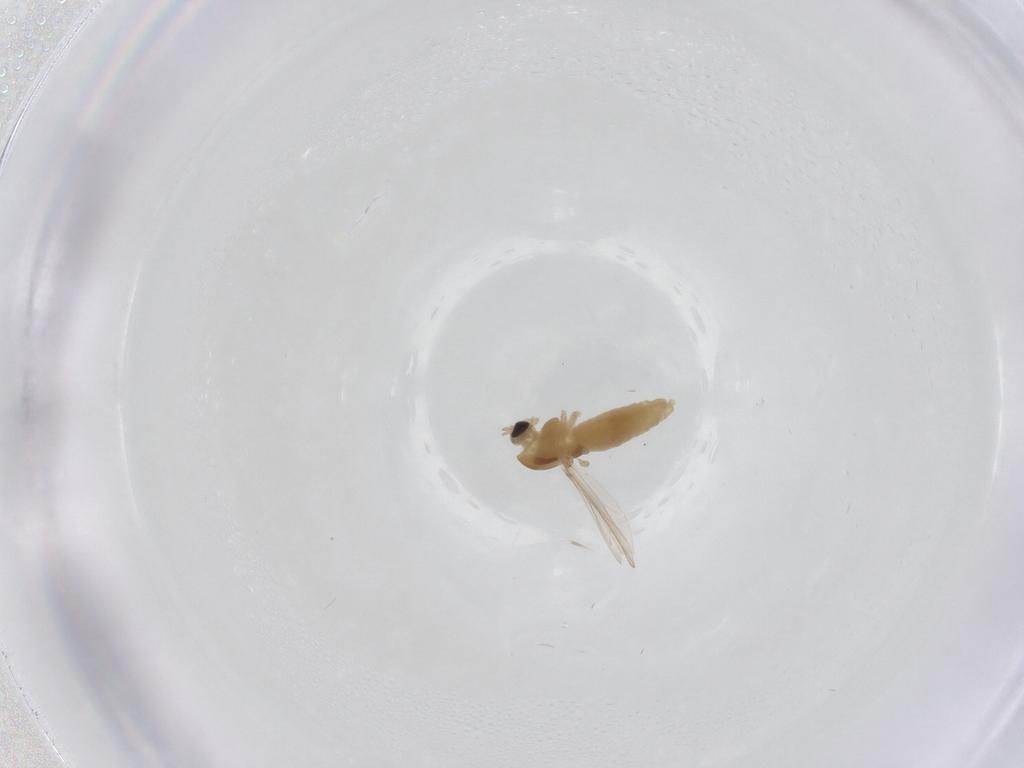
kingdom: Animalia
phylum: Arthropoda
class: Insecta
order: Diptera
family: Chironomidae
